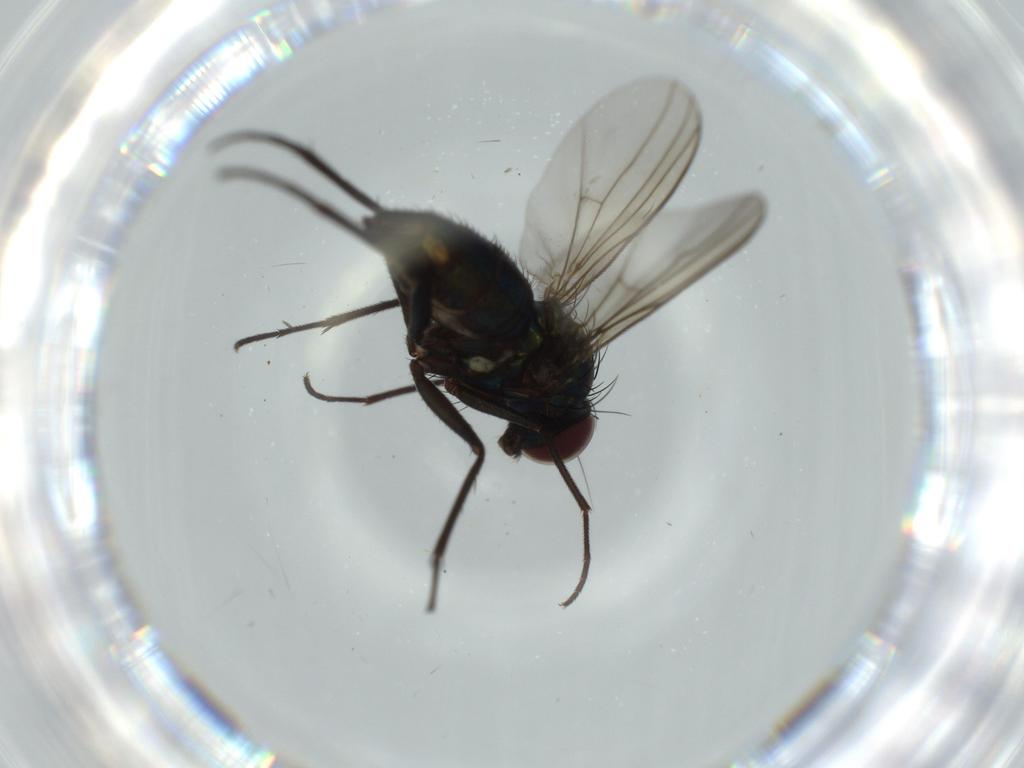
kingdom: Animalia
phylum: Arthropoda
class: Insecta
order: Diptera
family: Dolichopodidae
